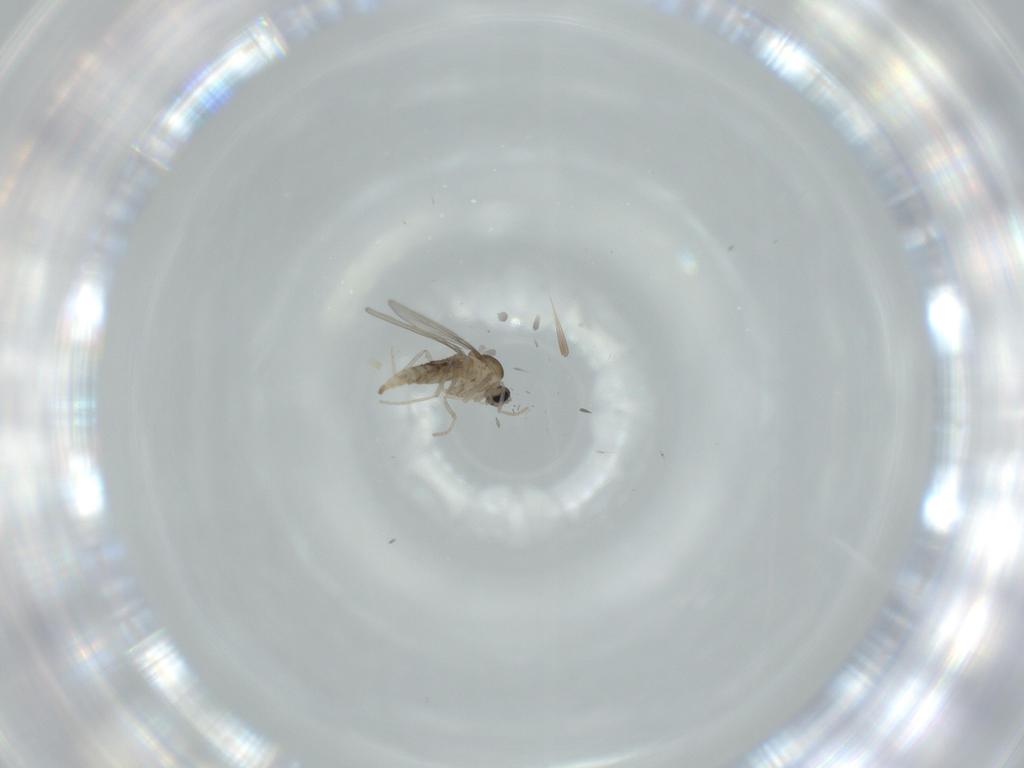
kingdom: Animalia
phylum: Arthropoda
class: Insecta
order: Diptera
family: Cecidomyiidae
